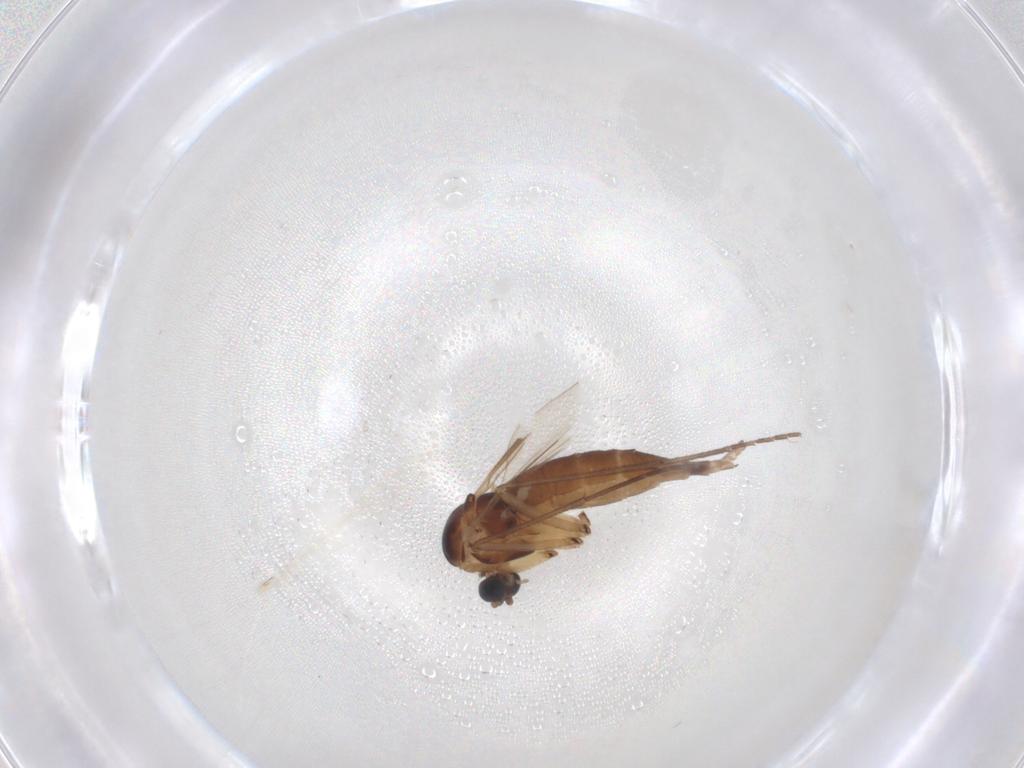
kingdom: Animalia
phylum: Arthropoda
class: Insecta
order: Diptera
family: Sciaridae
